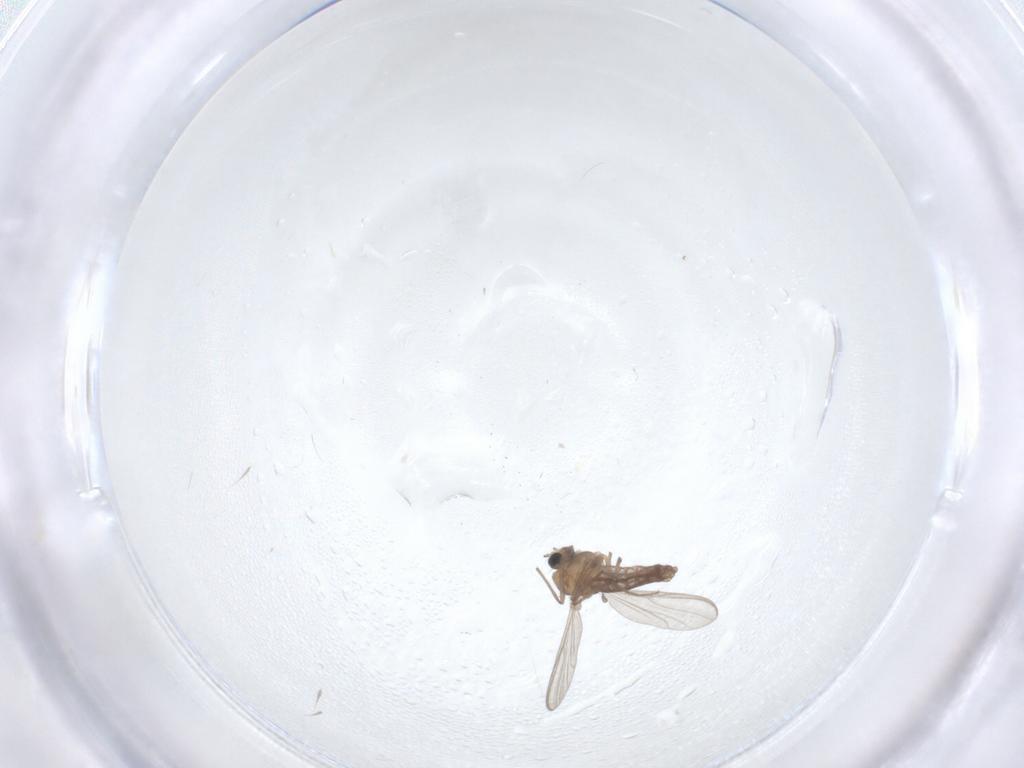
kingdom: Animalia
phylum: Arthropoda
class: Insecta
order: Diptera
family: Chironomidae
